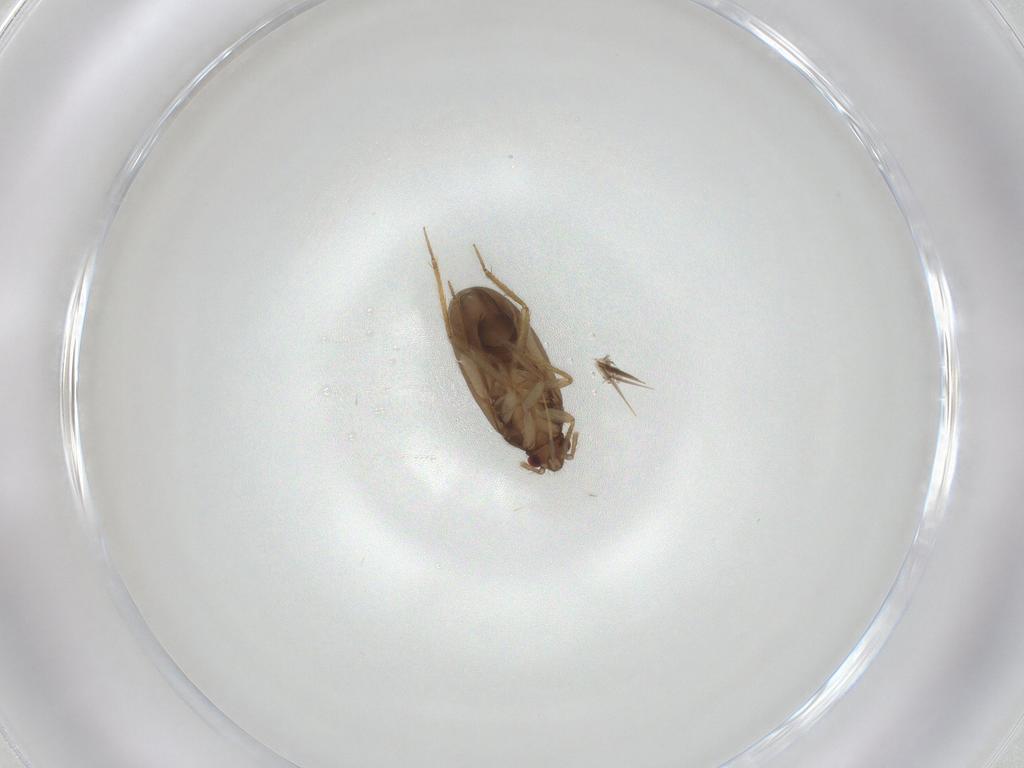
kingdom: Animalia
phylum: Arthropoda
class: Insecta
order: Hemiptera
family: Ceratocombidae
